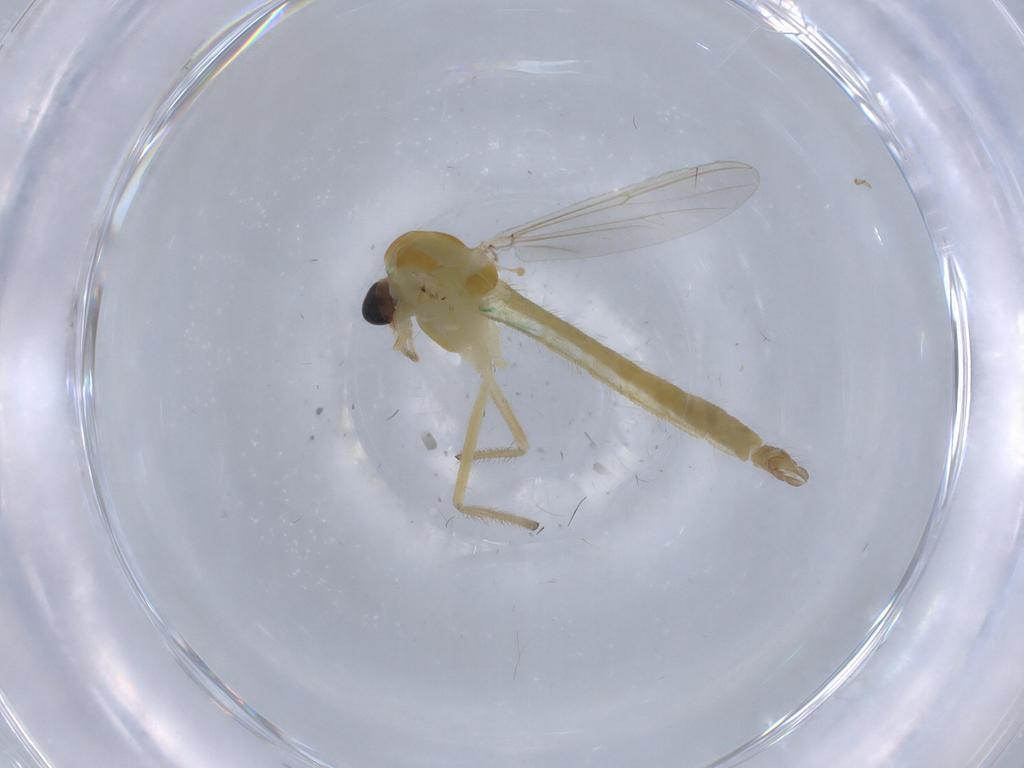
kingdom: Animalia
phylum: Arthropoda
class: Insecta
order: Diptera
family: Chironomidae
